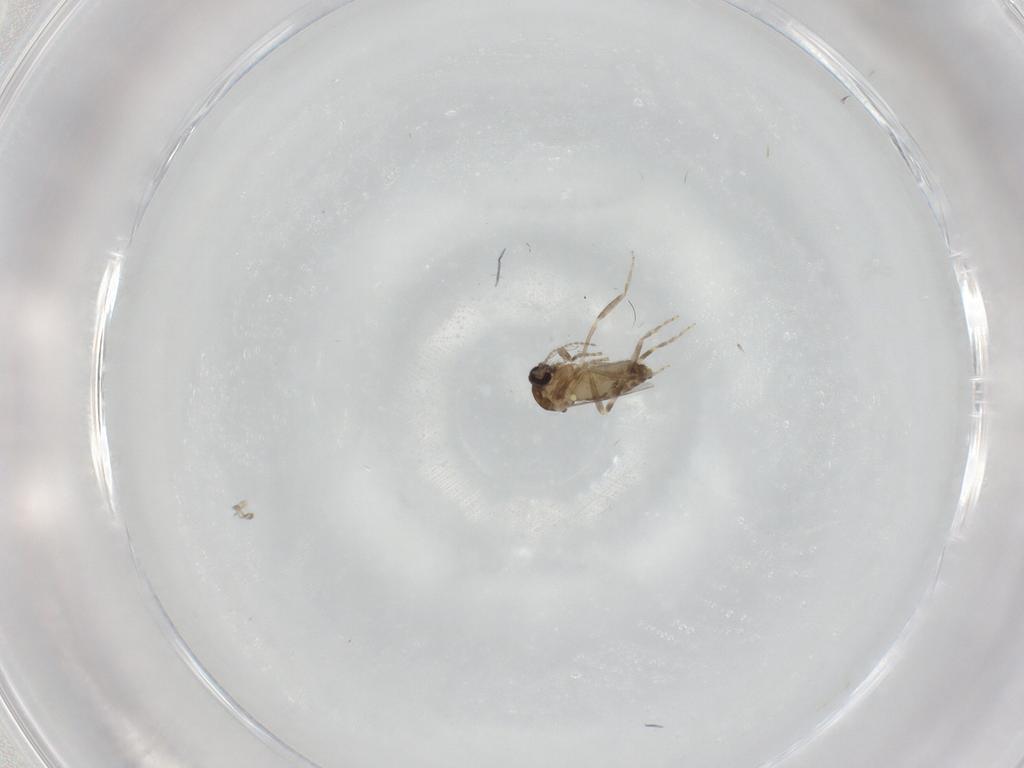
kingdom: Animalia
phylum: Arthropoda
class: Insecta
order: Diptera
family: Ceratopogonidae
